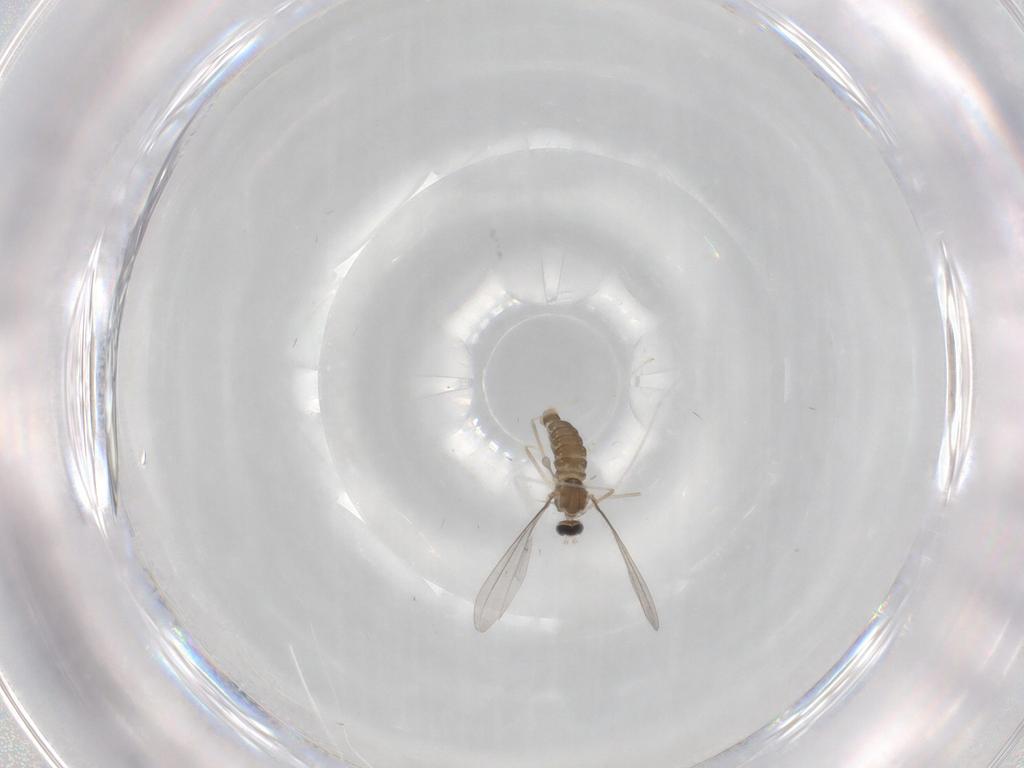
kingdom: Animalia
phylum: Arthropoda
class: Insecta
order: Diptera
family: Cecidomyiidae
